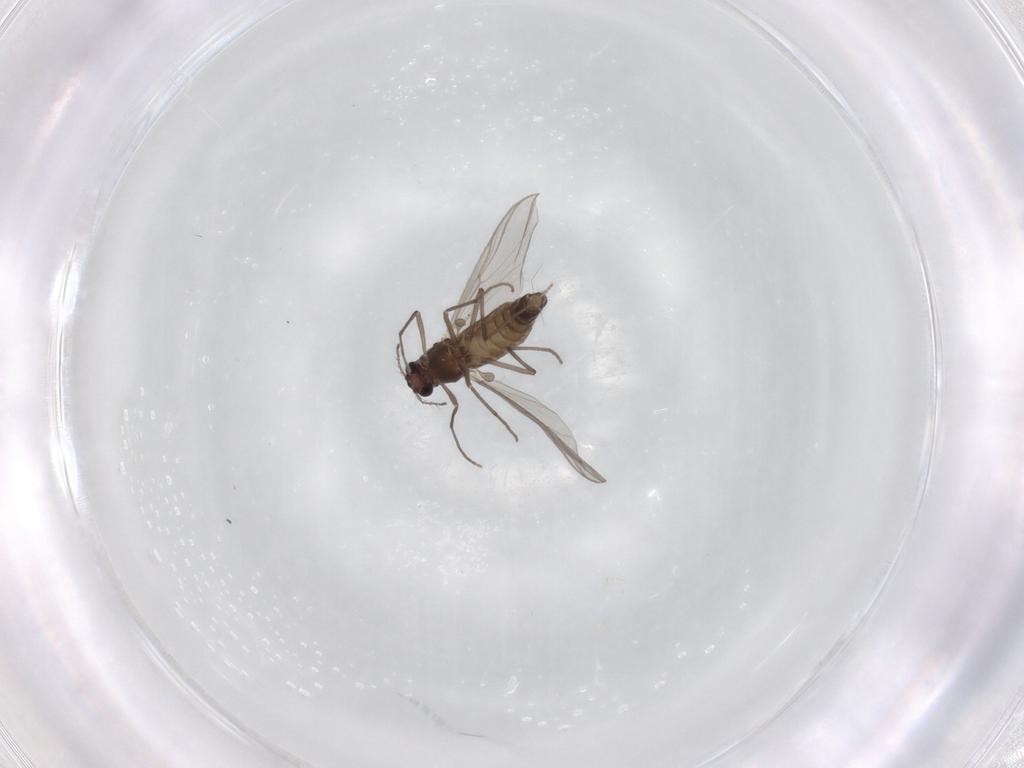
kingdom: Animalia
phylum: Arthropoda
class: Insecta
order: Diptera
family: Chironomidae
